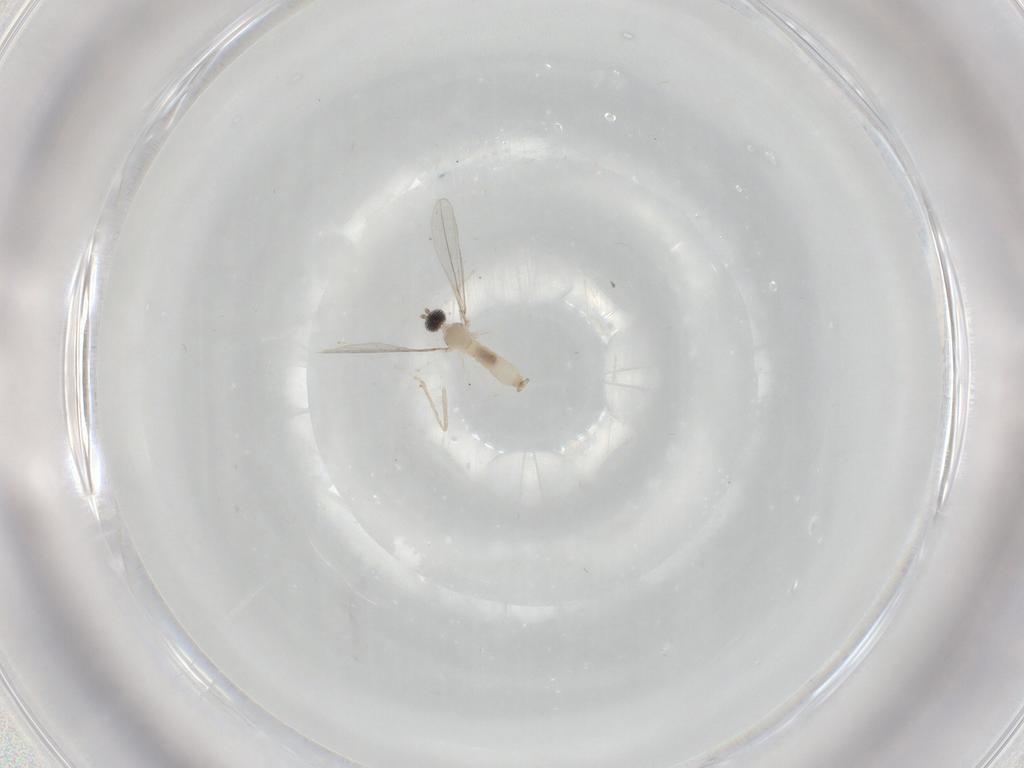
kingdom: Animalia
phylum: Arthropoda
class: Insecta
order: Diptera
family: Cecidomyiidae
